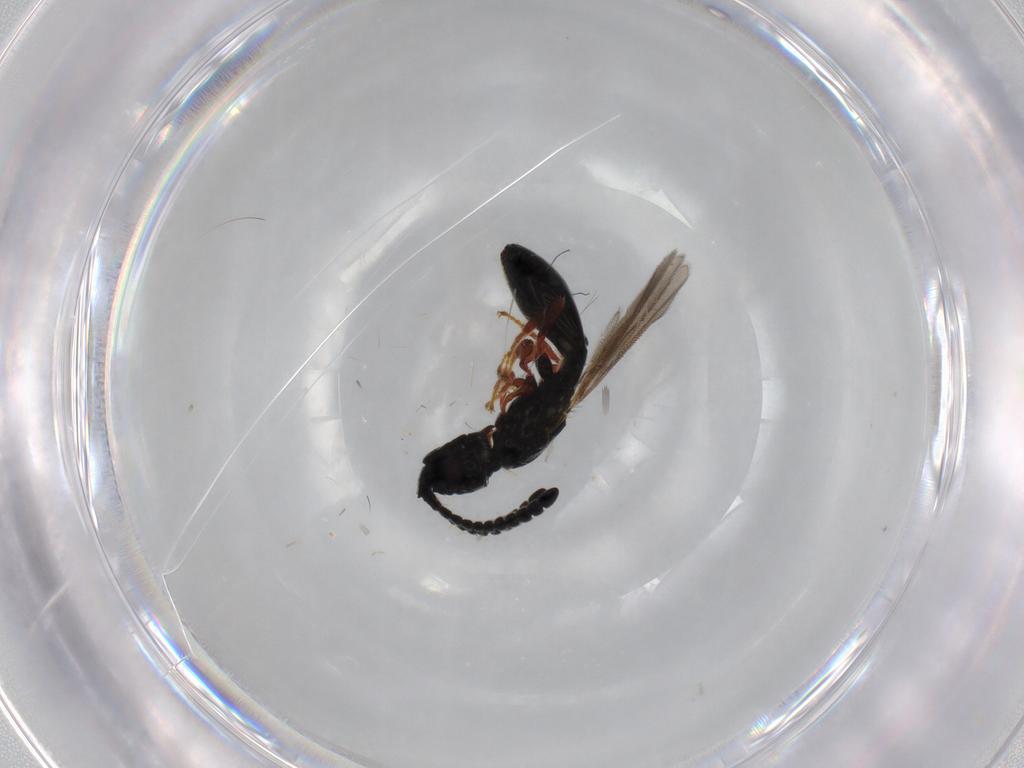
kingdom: Animalia
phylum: Arthropoda
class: Insecta
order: Hymenoptera
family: Diapriidae
